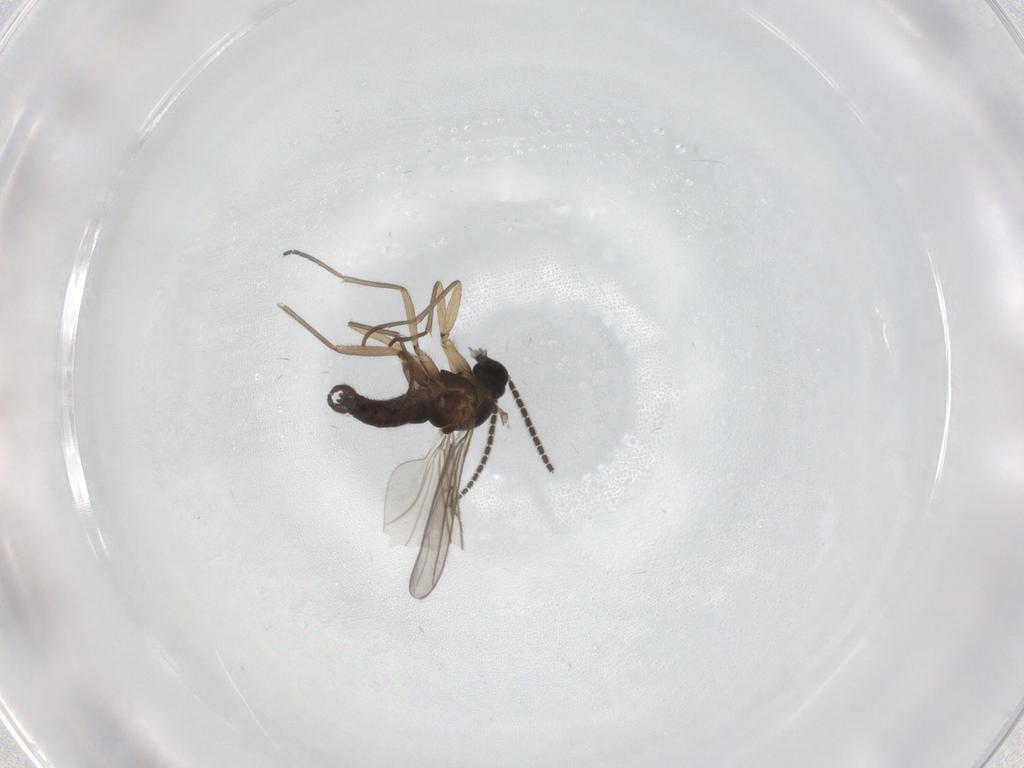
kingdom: Animalia
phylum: Arthropoda
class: Insecta
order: Diptera
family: Sciaridae
